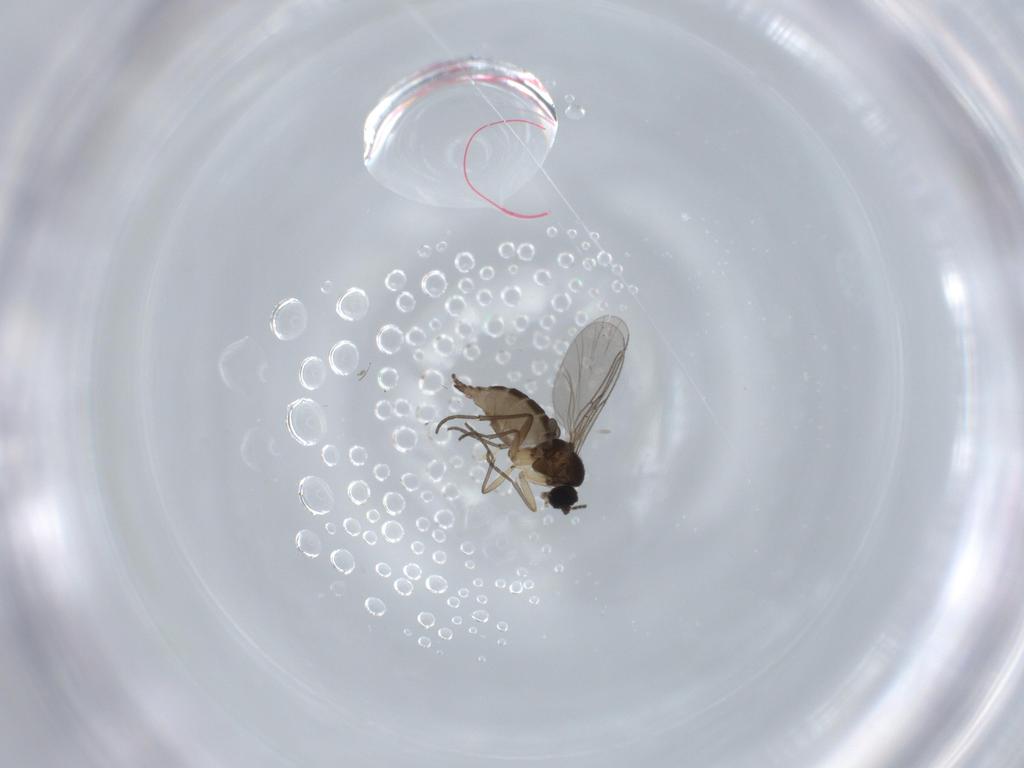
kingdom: Animalia
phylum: Arthropoda
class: Insecta
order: Diptera
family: Sciaridae
